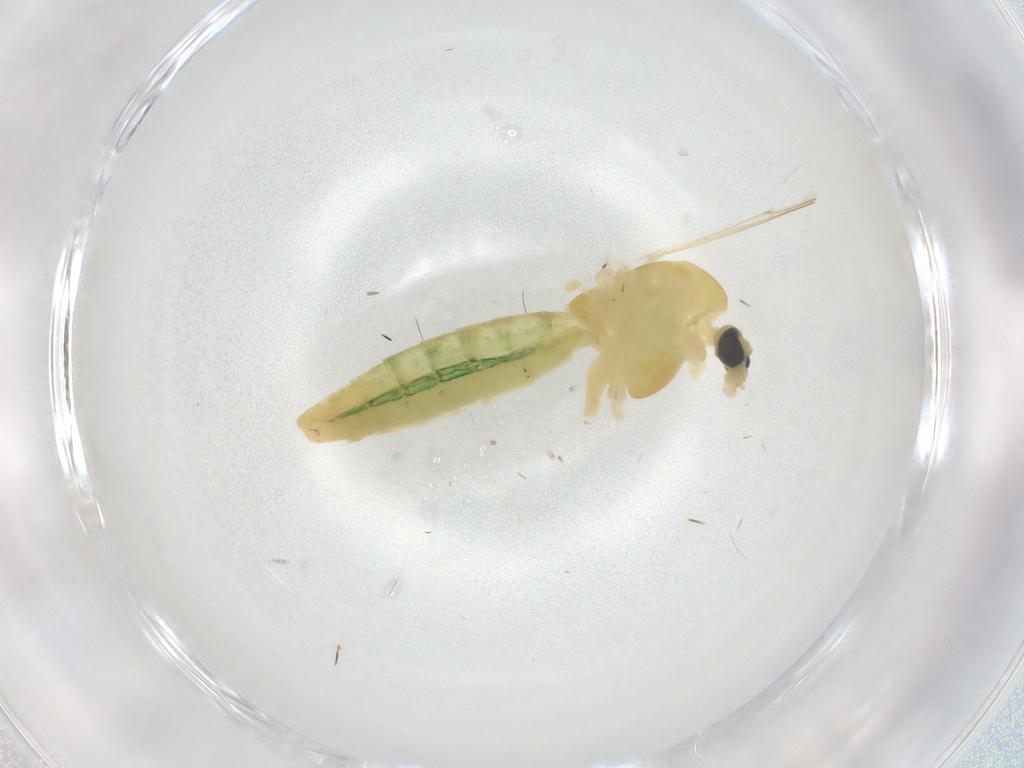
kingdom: Animalia
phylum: Arthropoda
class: Insecta
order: Diptera
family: Chironomidae
